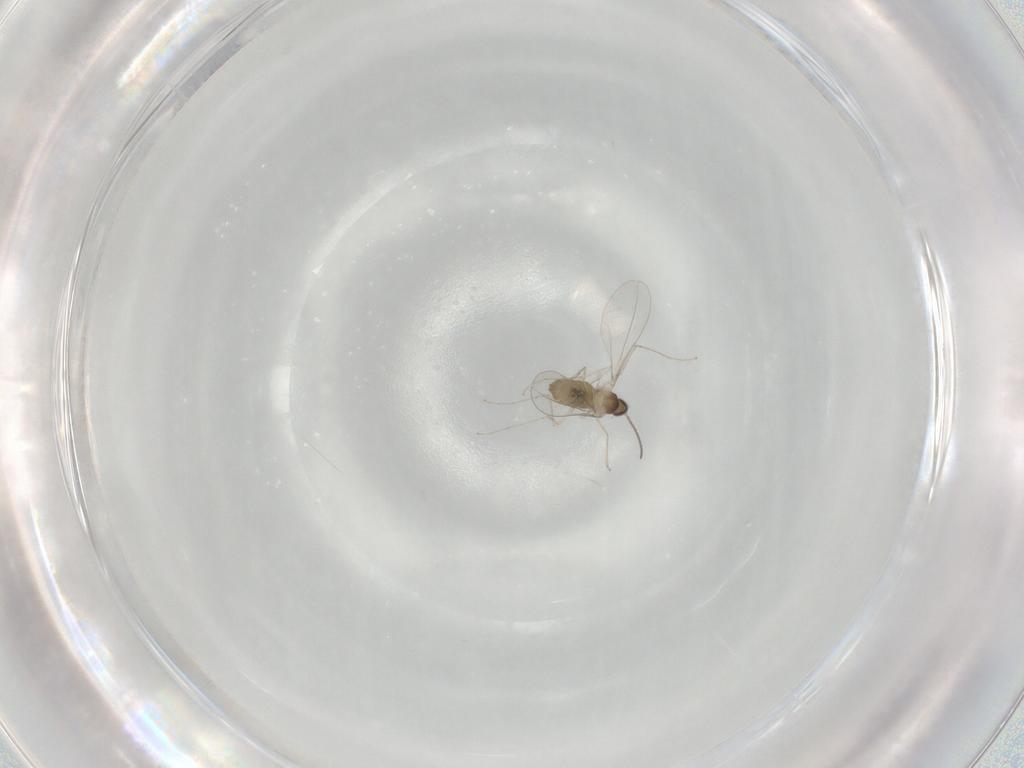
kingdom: Animalia
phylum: Arthropoda
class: Insecta
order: Diptera
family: Cecidomyiidae
